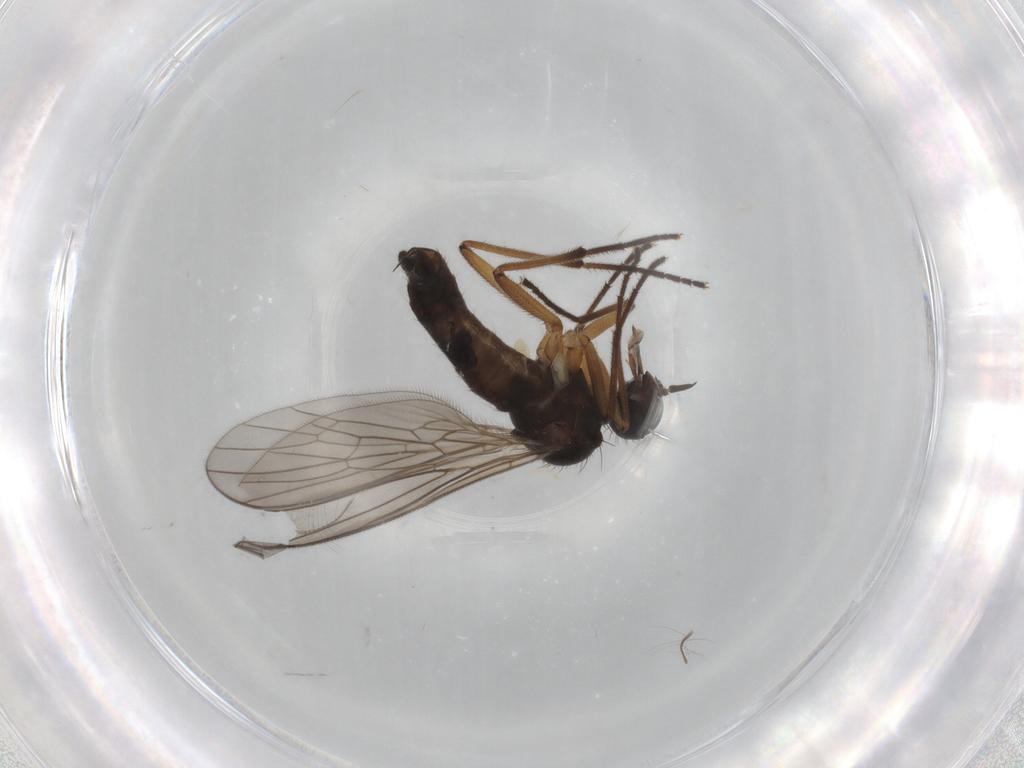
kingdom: Animalia
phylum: Arthropoda
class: Insecta
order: Diptera
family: Empididae
